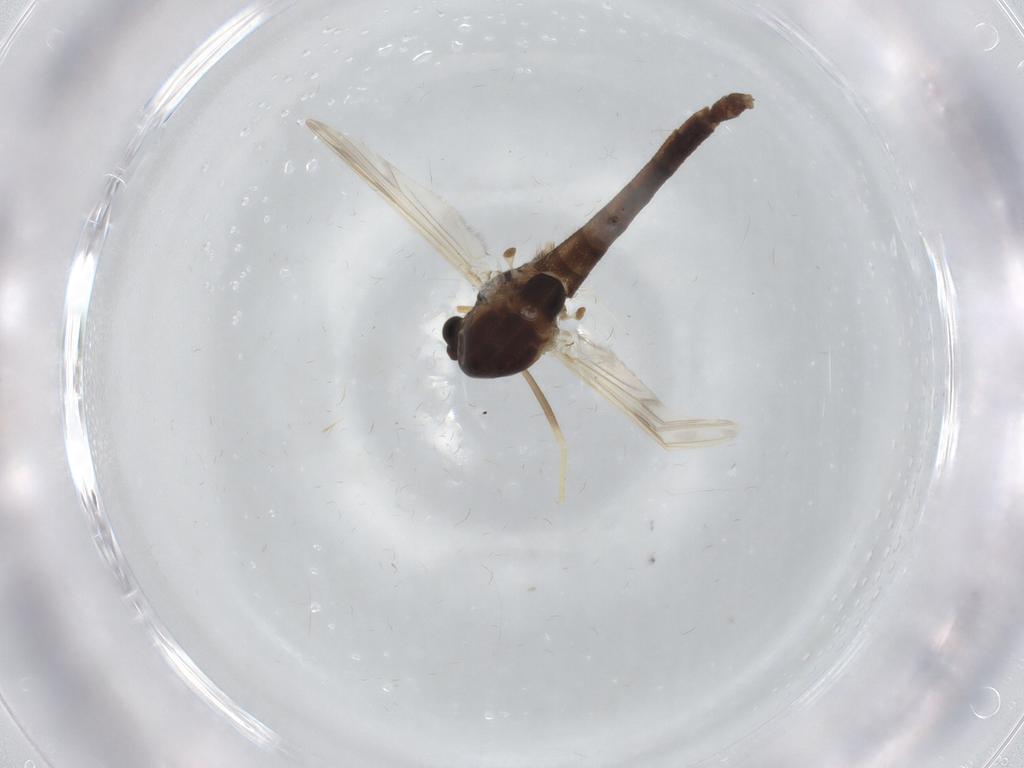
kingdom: Animalia
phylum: Arthropoda
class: Insecta
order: Diptera
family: Chironomidae
